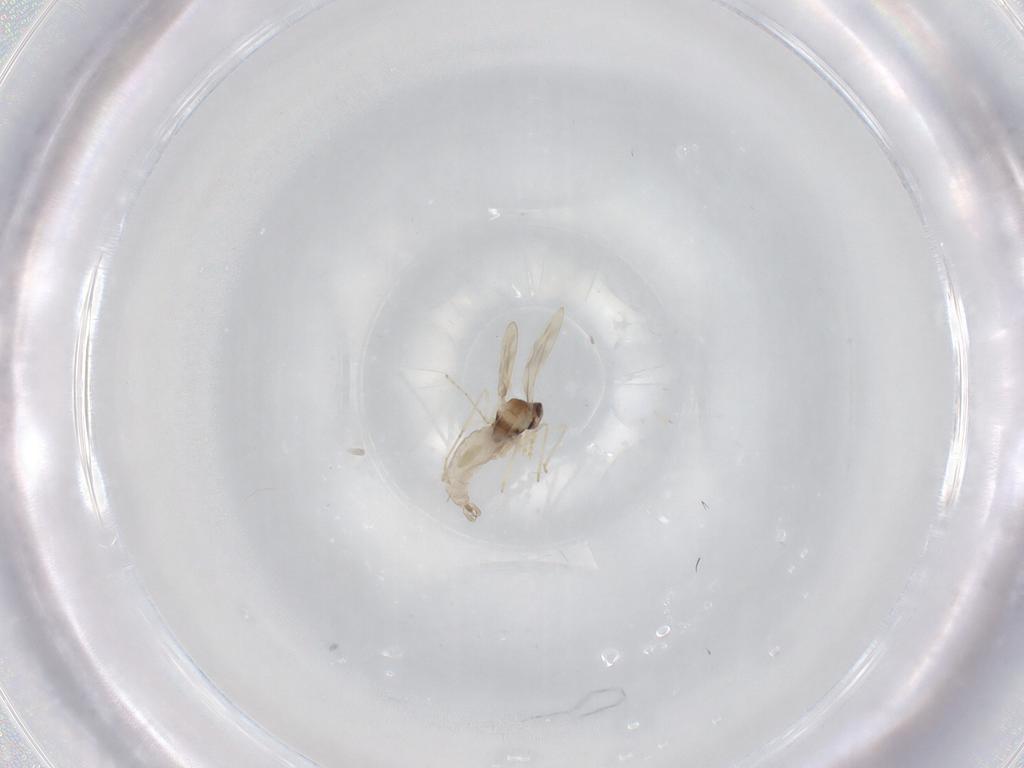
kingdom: Animalia
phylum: Arthropoda
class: Insecta
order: Diptera
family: Cecidomyiidae
